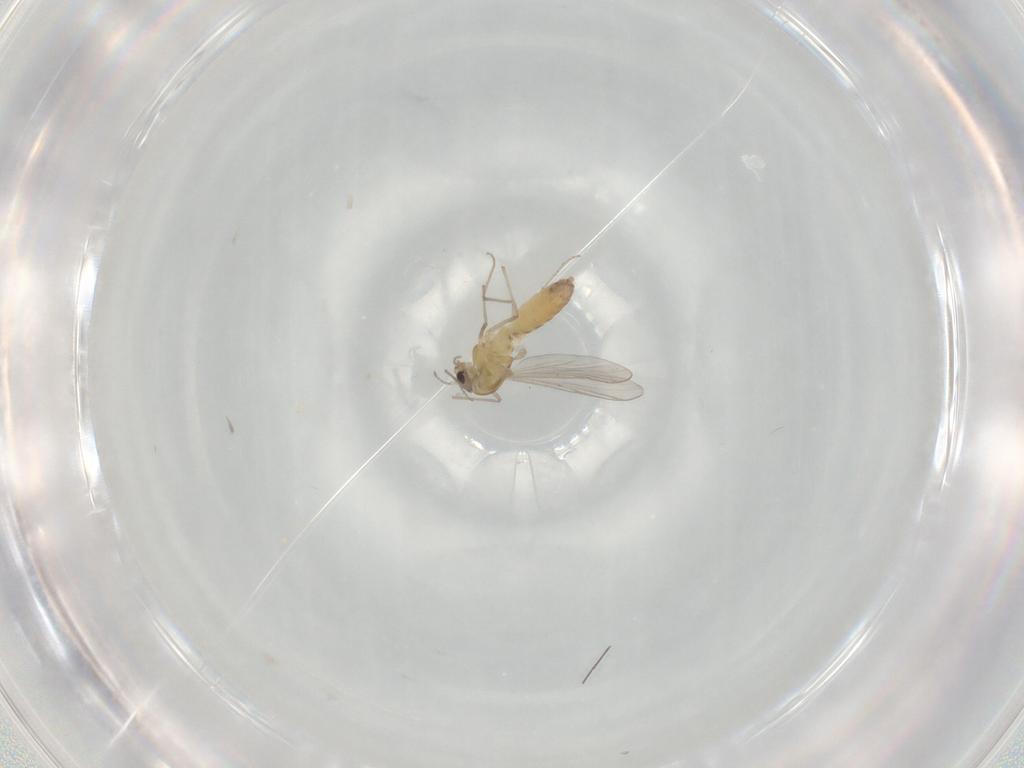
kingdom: Animalia
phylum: Arthropoda
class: Insecta
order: Diptera
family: Chironomidae
